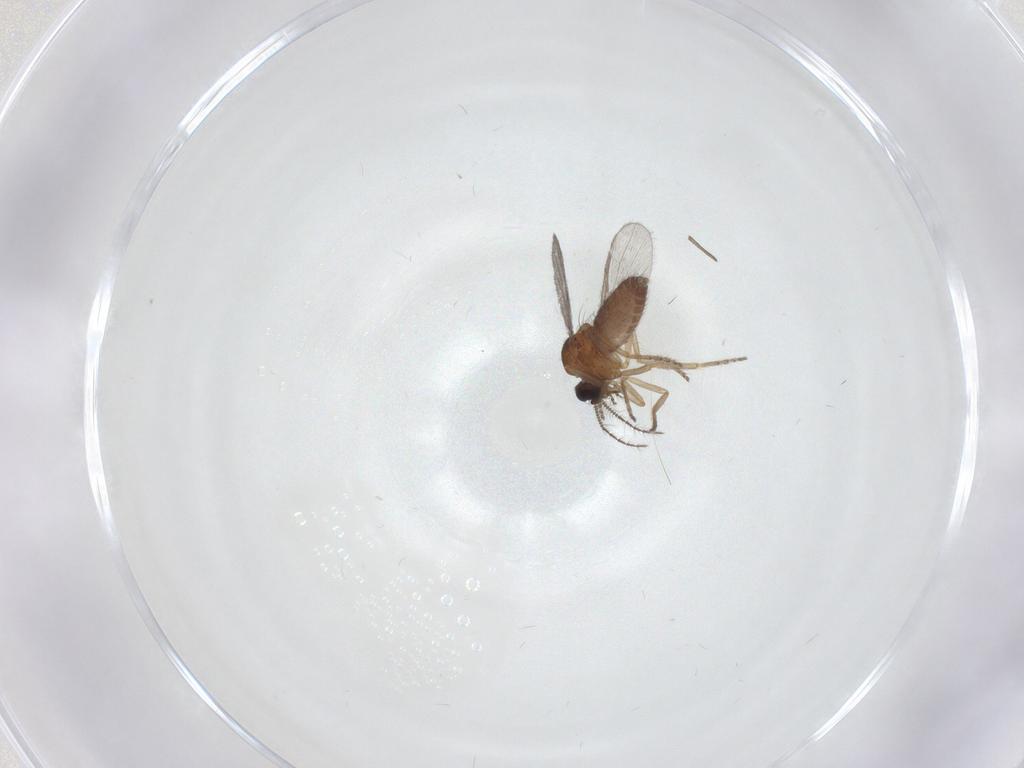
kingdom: Animalia
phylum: Arthropoda
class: Insecta
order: Diptera
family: Ceratopogonidae
